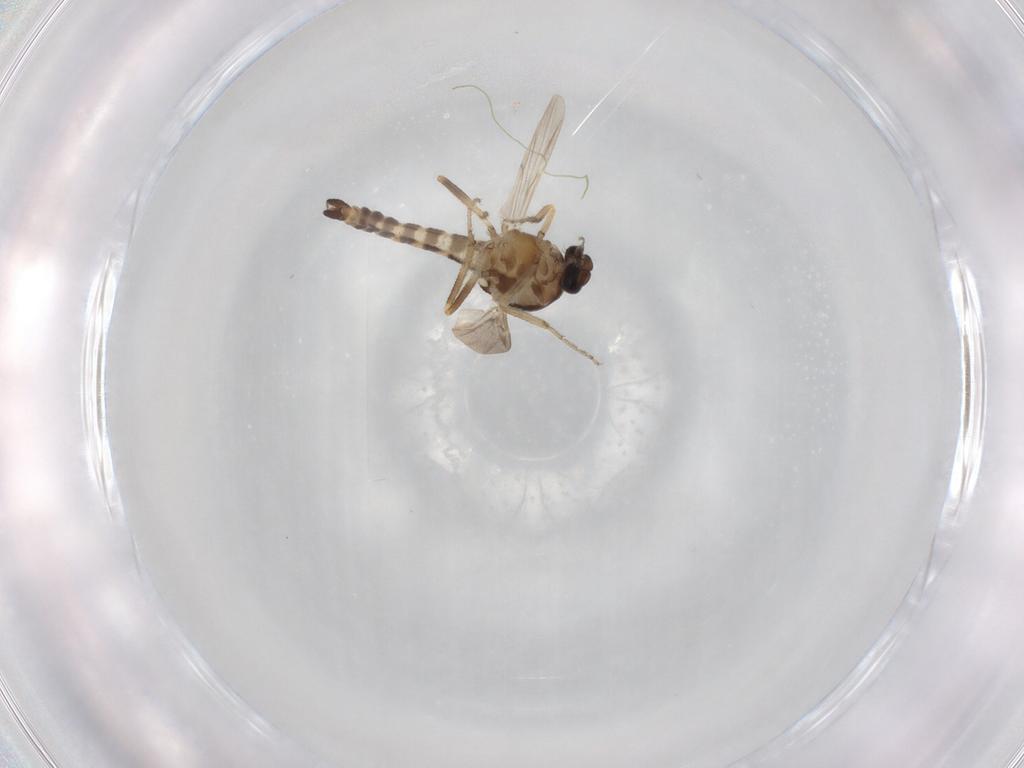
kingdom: Animalia
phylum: Arthropoda
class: Insecta
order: Diptera
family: Ceratopogonidae
